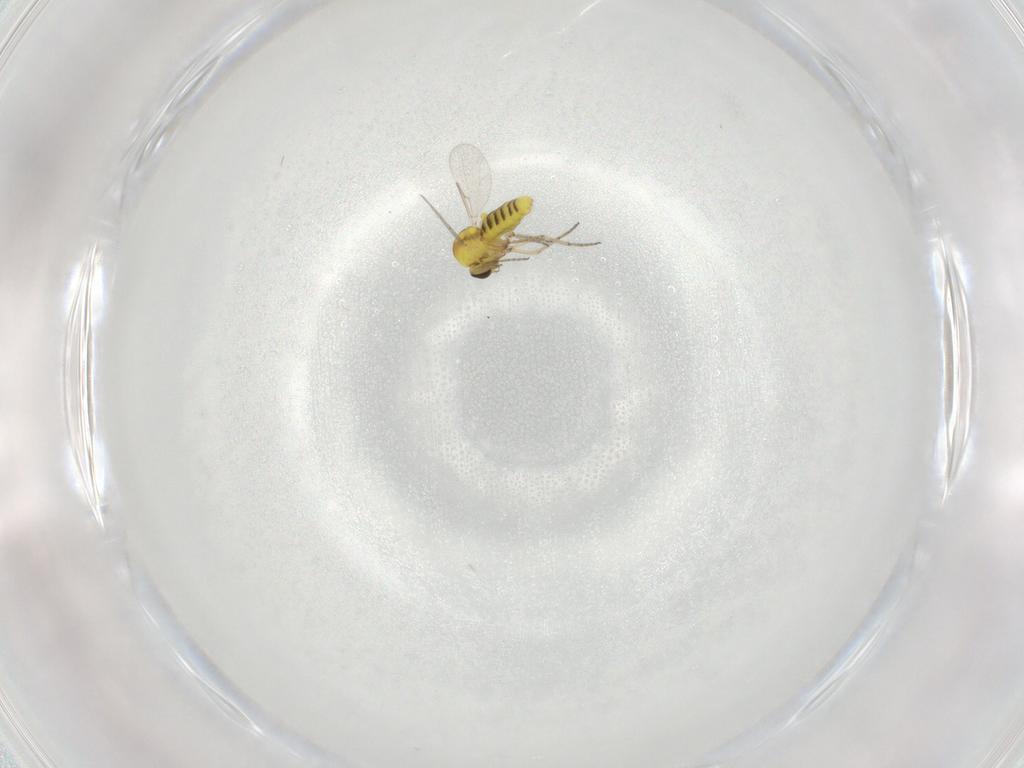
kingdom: Animalia
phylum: Arthropoda
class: Insecta
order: Diptera
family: Ceratopogonidae
